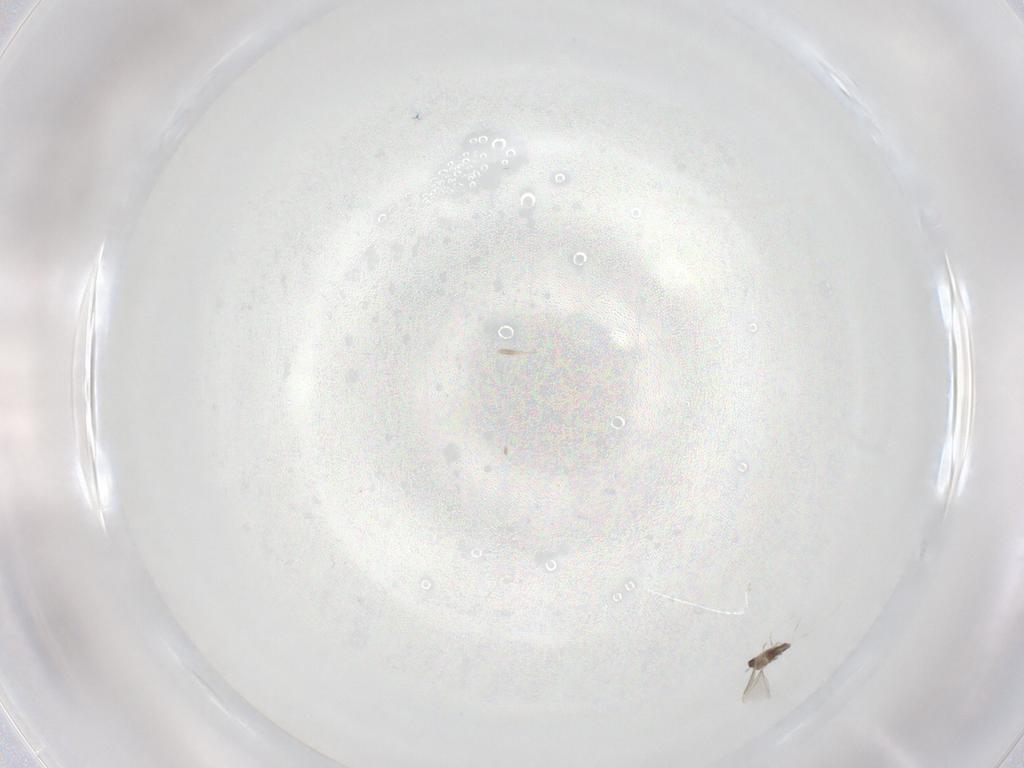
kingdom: Animalia
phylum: Arthropoda
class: Insecta
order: Diptera
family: Cecidomyiidae
